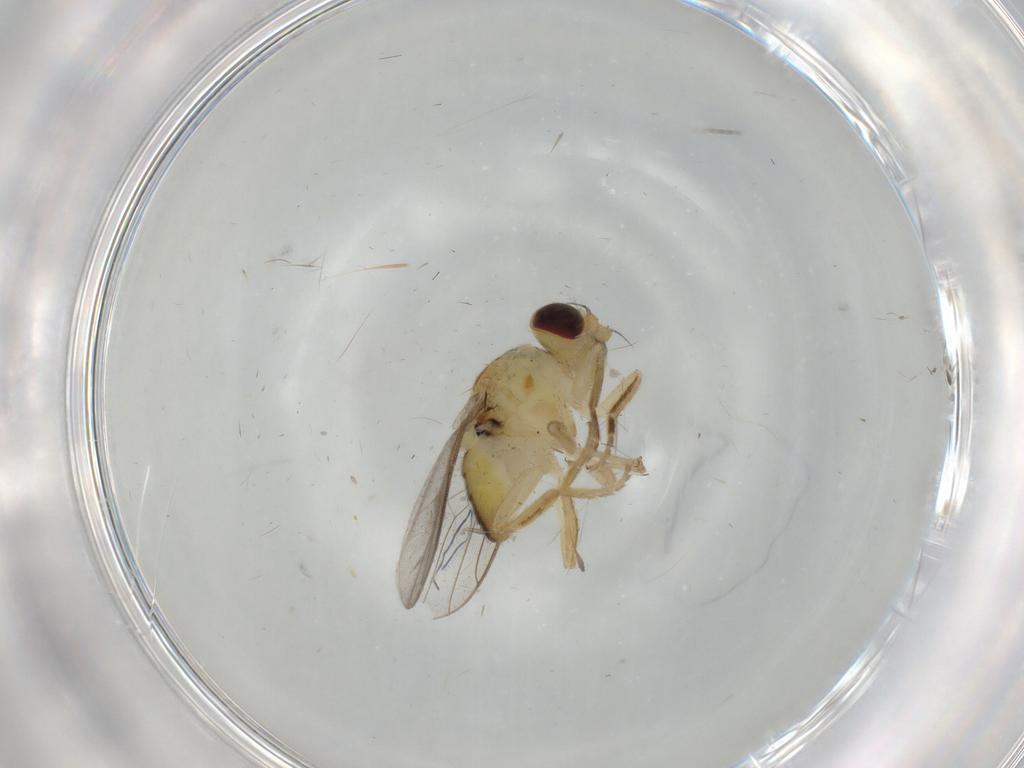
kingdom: Animalia
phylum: Arthropoda
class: Insecta
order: Diptera
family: Chloropidae
